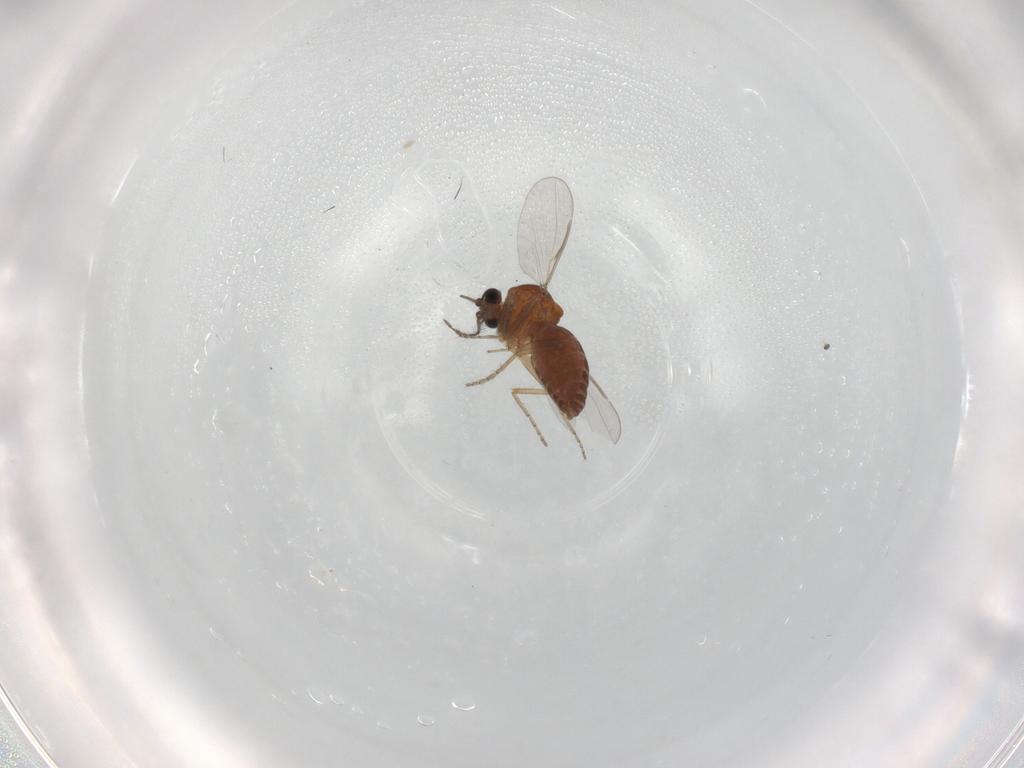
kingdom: Animalia
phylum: Arthropoda
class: Insecta
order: Diptera
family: Ceratopogonidae
